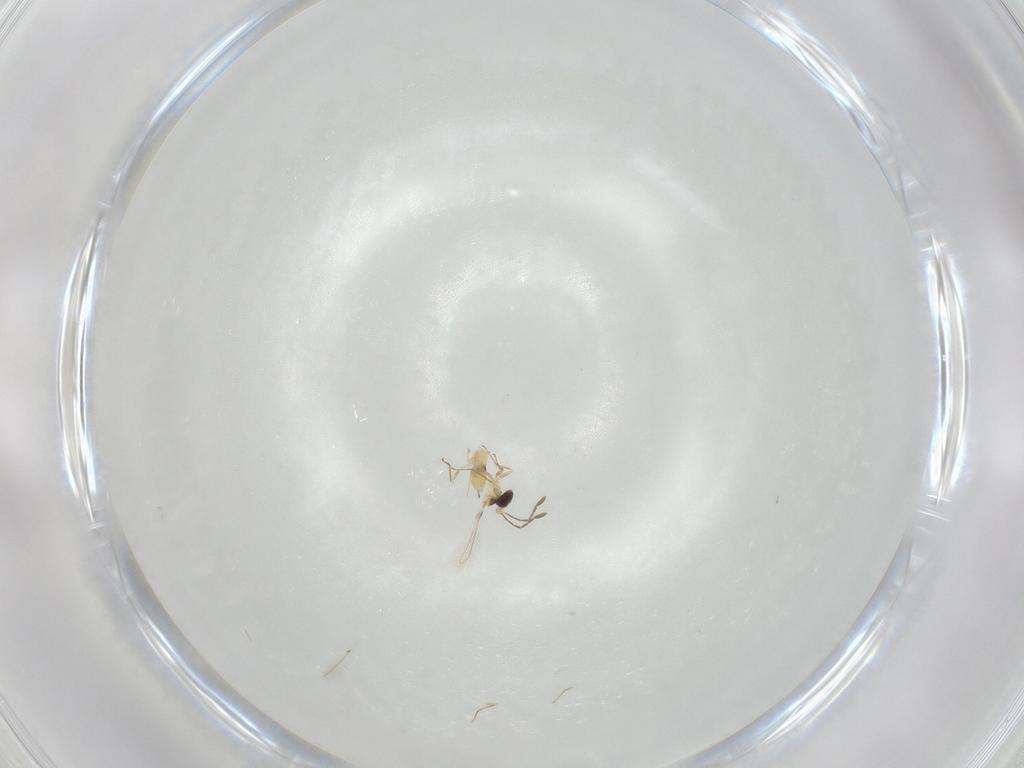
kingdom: Animalia
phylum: Arthropoda
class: Insecta
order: Hymenoptera
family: Mymaridae
